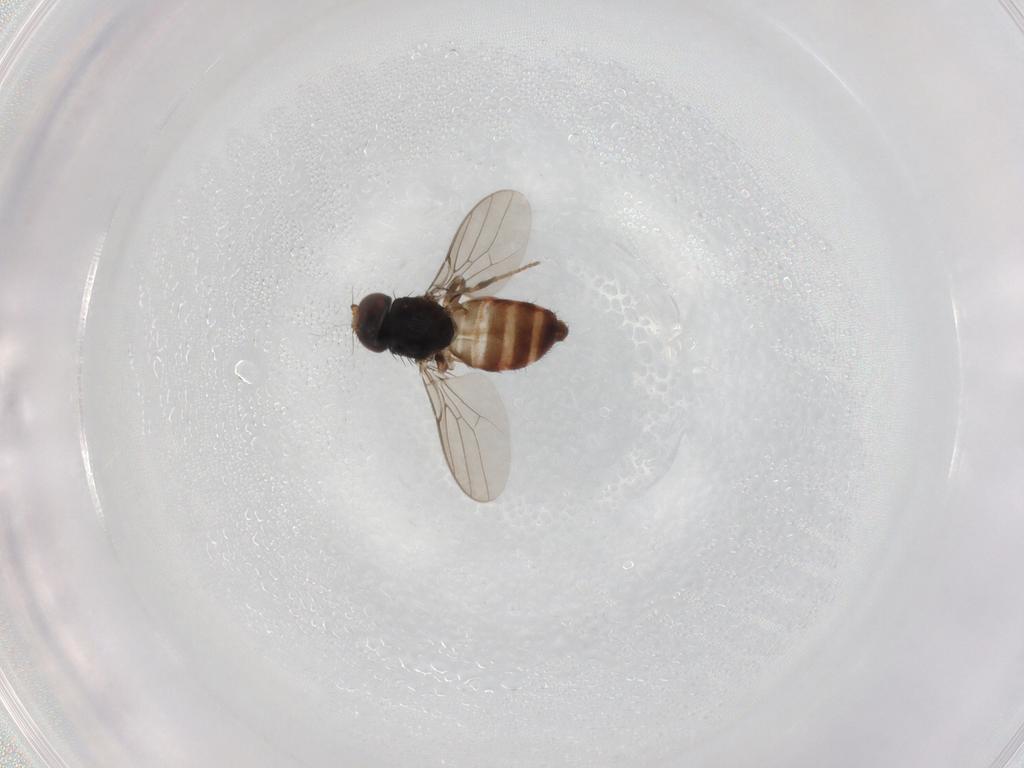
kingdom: Animalia
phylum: Arthropoda
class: Insecta
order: Diptera
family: Chloropidae
